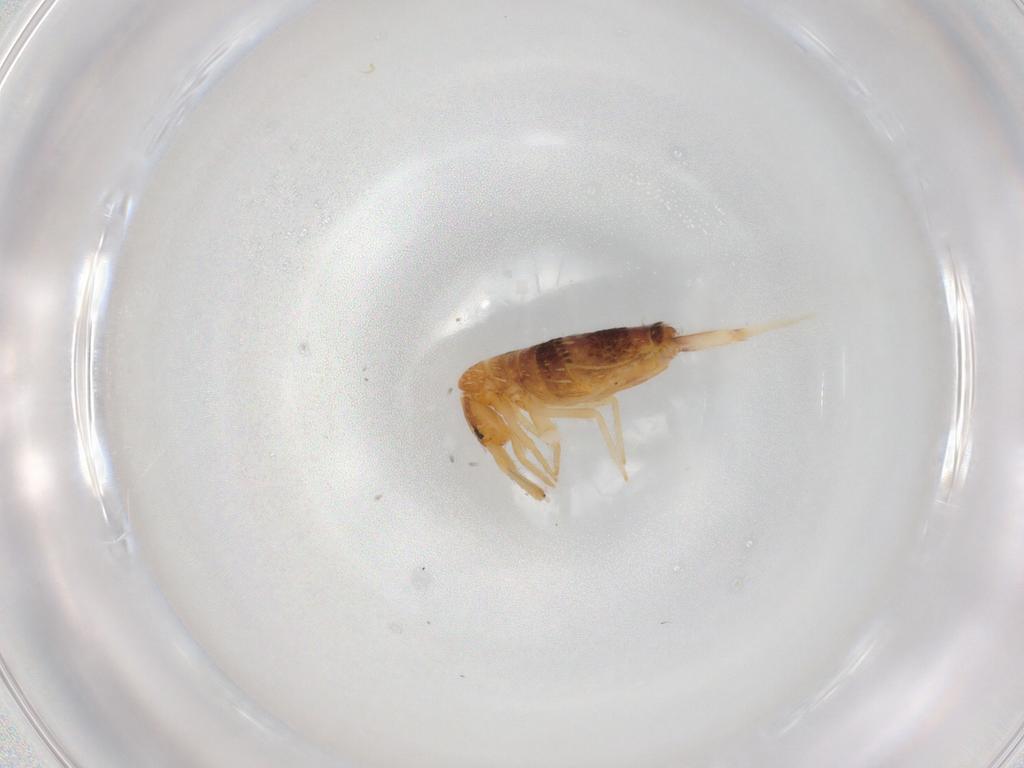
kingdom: Animalia
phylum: Arthropoda
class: Collembola
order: Entomobryomorpha
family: Entomobryidae
